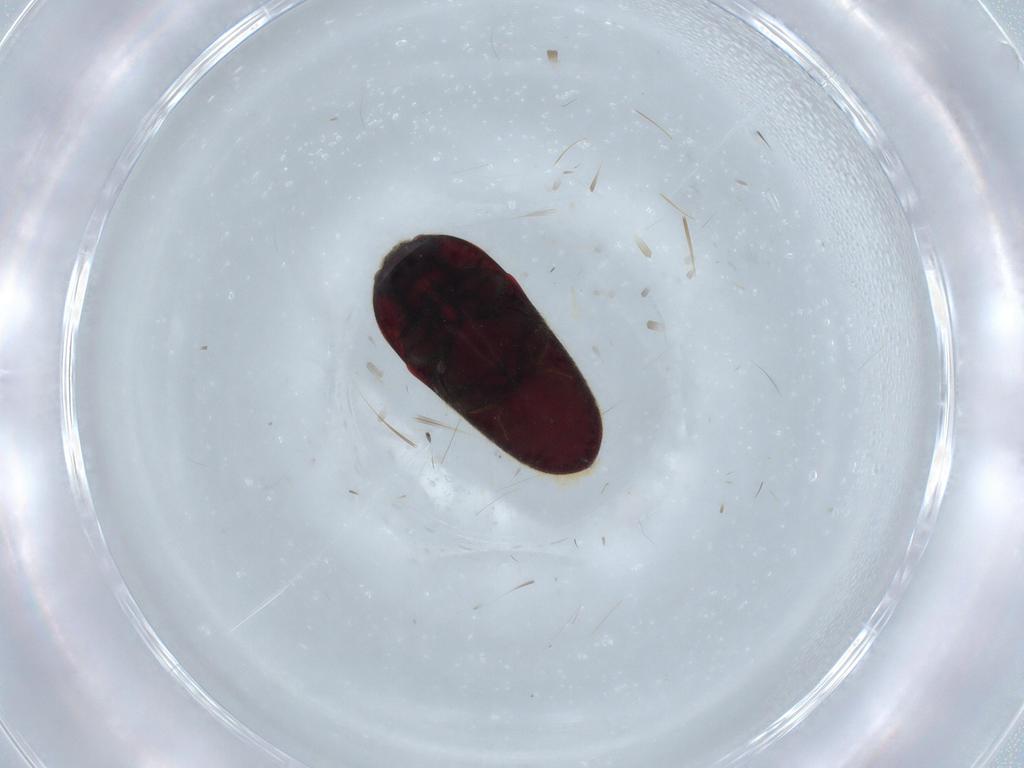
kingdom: Animalia
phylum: Arthropoda
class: Insecta
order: Coleoptera
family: Throscidae
